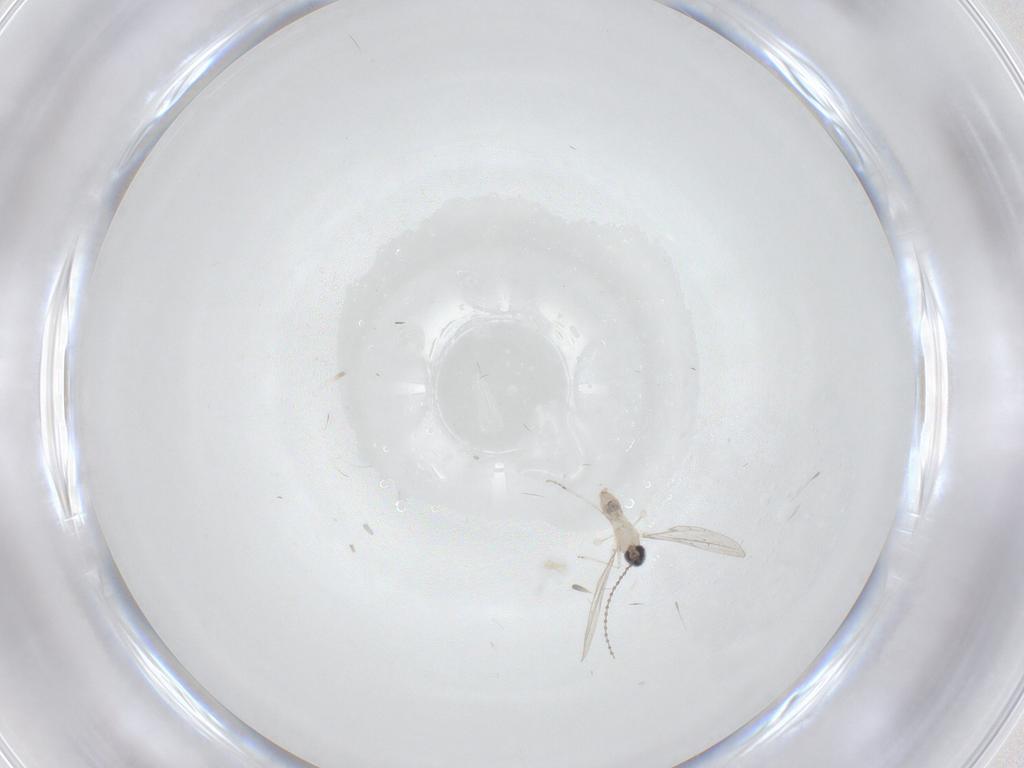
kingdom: Animalia
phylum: Arthropoda
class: Insecta
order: Diptera
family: Cecidomyiidae
